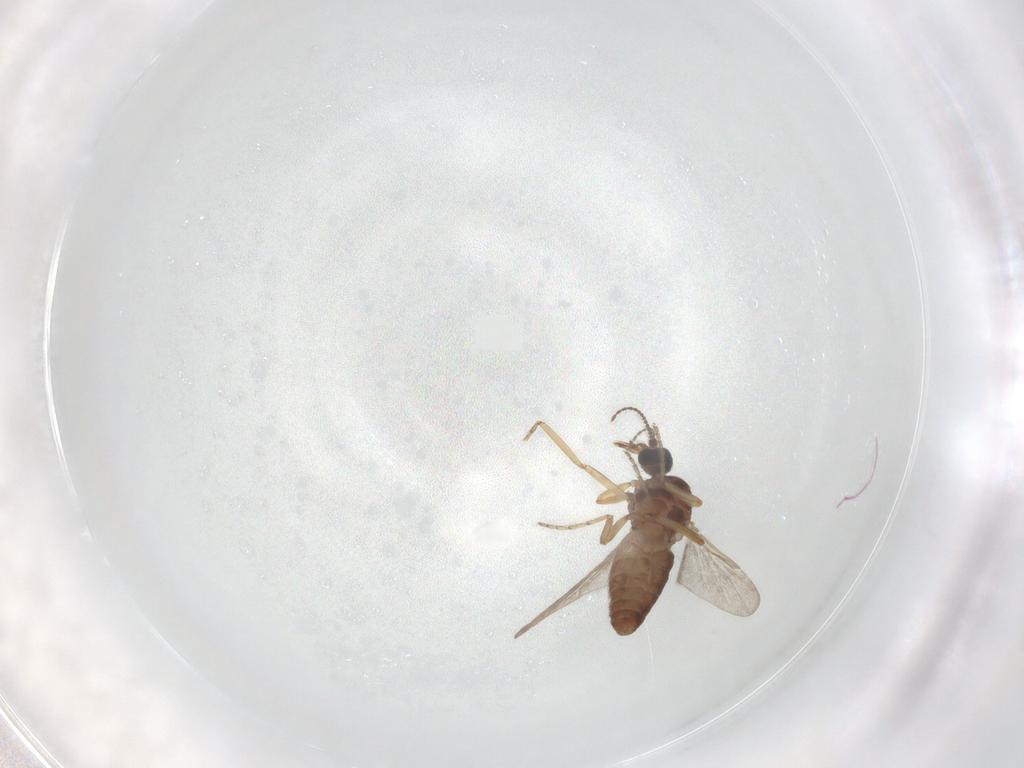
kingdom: Animalia
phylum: Arthropoda
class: Insecta
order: Diptera
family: Ceratopogonidae
